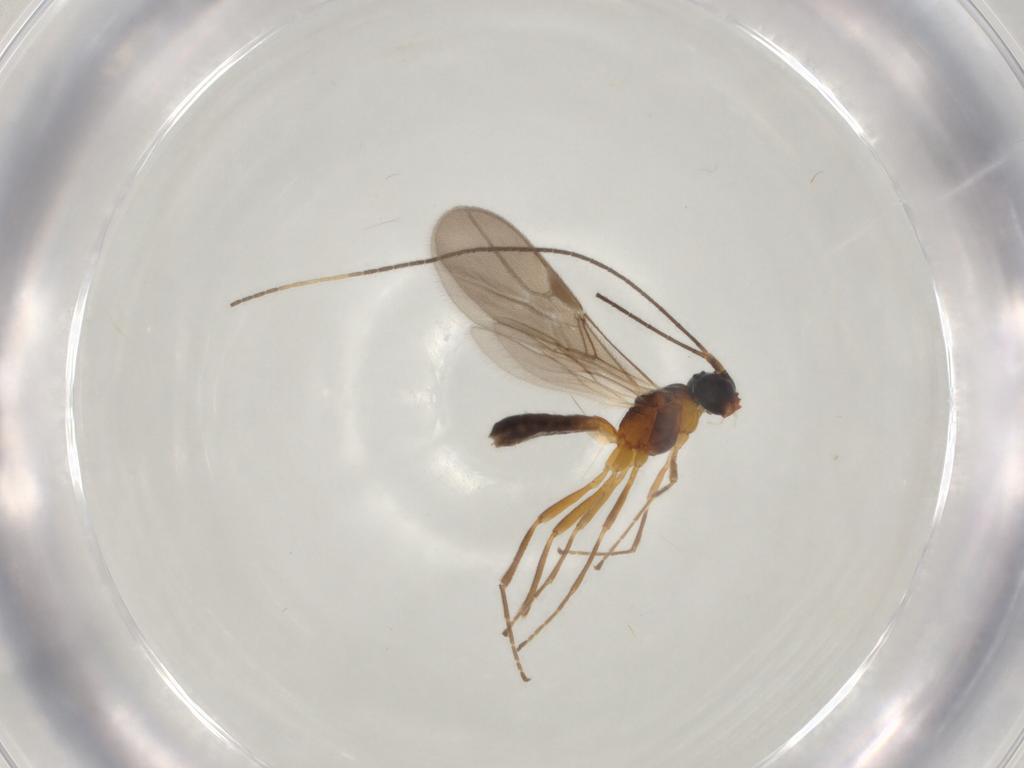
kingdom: Animalia
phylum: Arthropoda
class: Insecta
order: Hymenoptera
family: Braconidae
